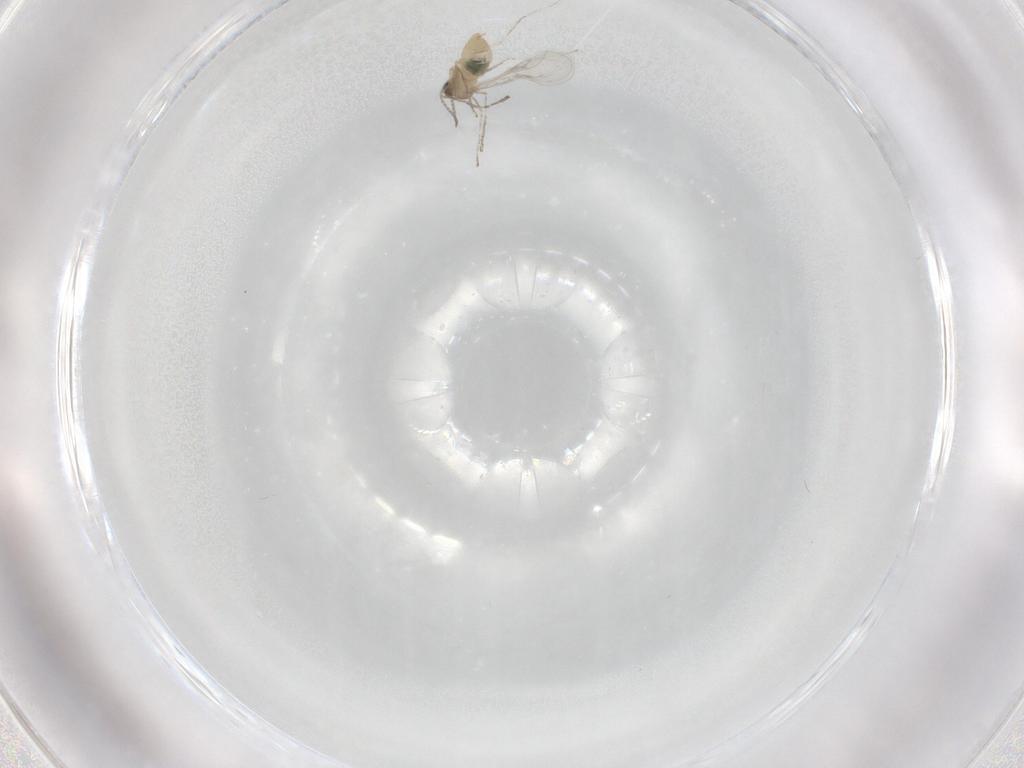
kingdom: Animalia
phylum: Arthropoda
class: Insecta
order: Diptera
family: Cecidomyiidae
